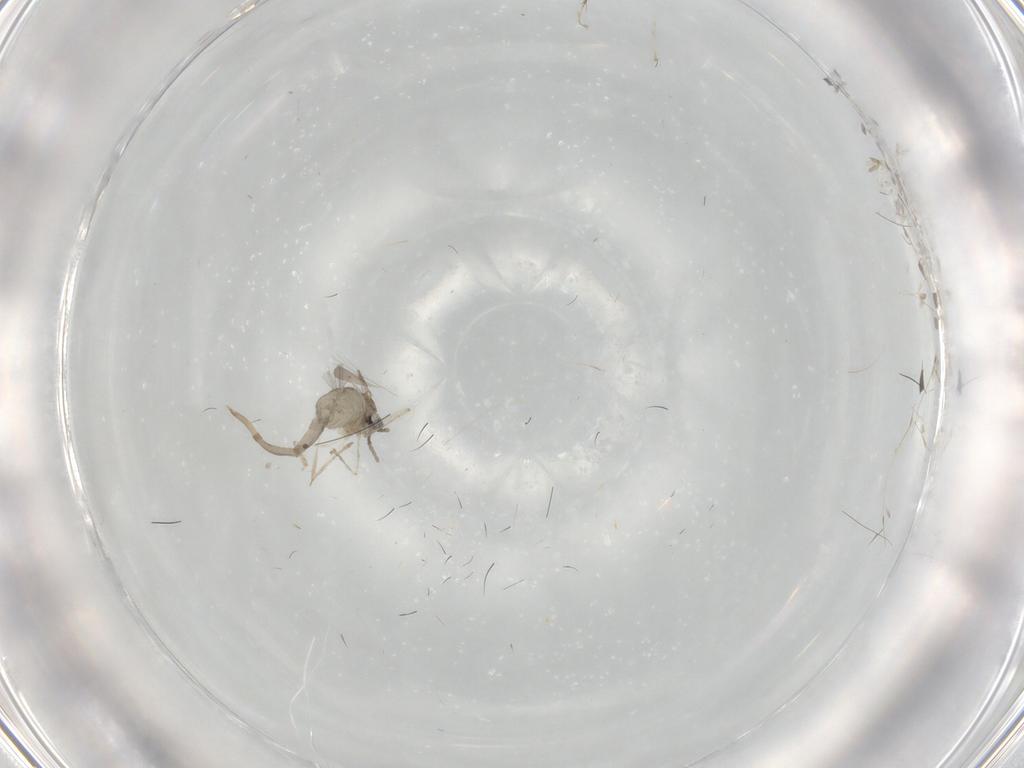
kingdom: Animalia
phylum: Arthropoda
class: Insecta
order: Diptera
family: Cecidomyiidae
